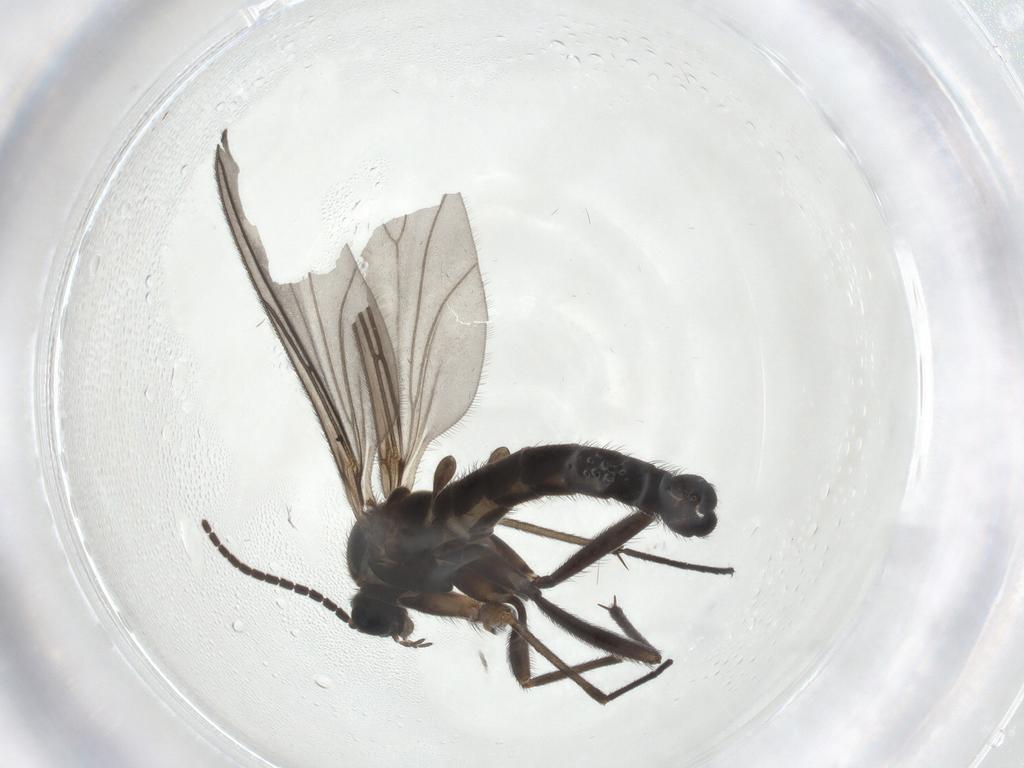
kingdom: Animalia
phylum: Arthropoda
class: Insecta
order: Diptera
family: Sciaridae
